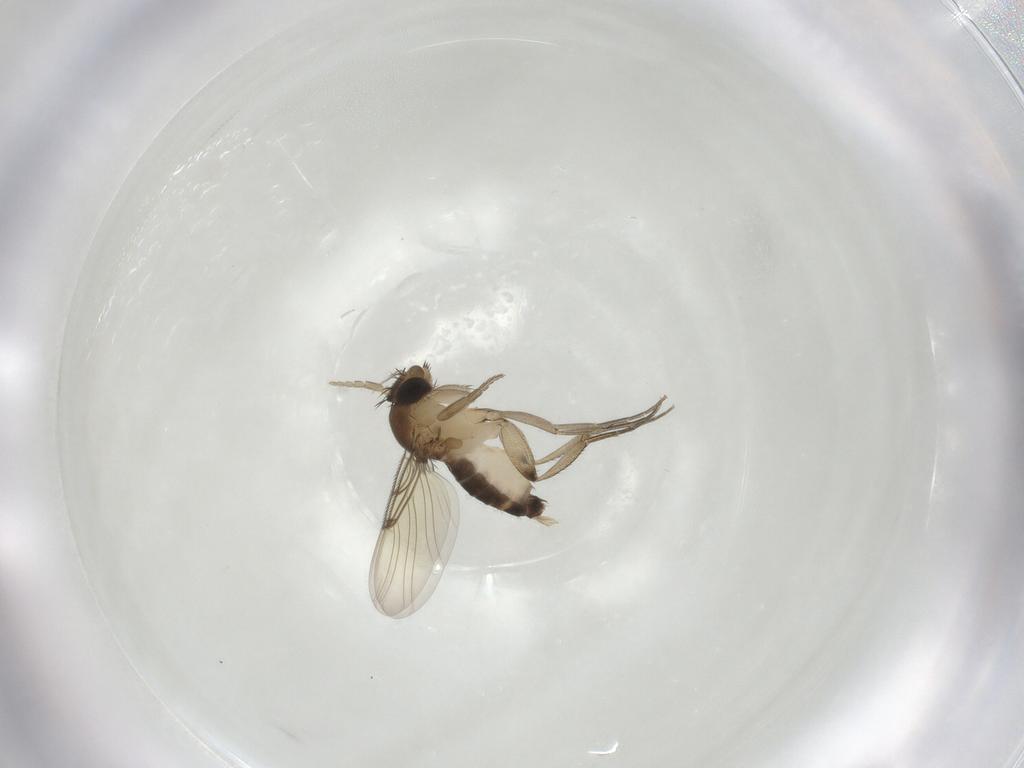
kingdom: Animalia
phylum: Arthropoda
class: Insecta
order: Diptera
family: Phoridae
